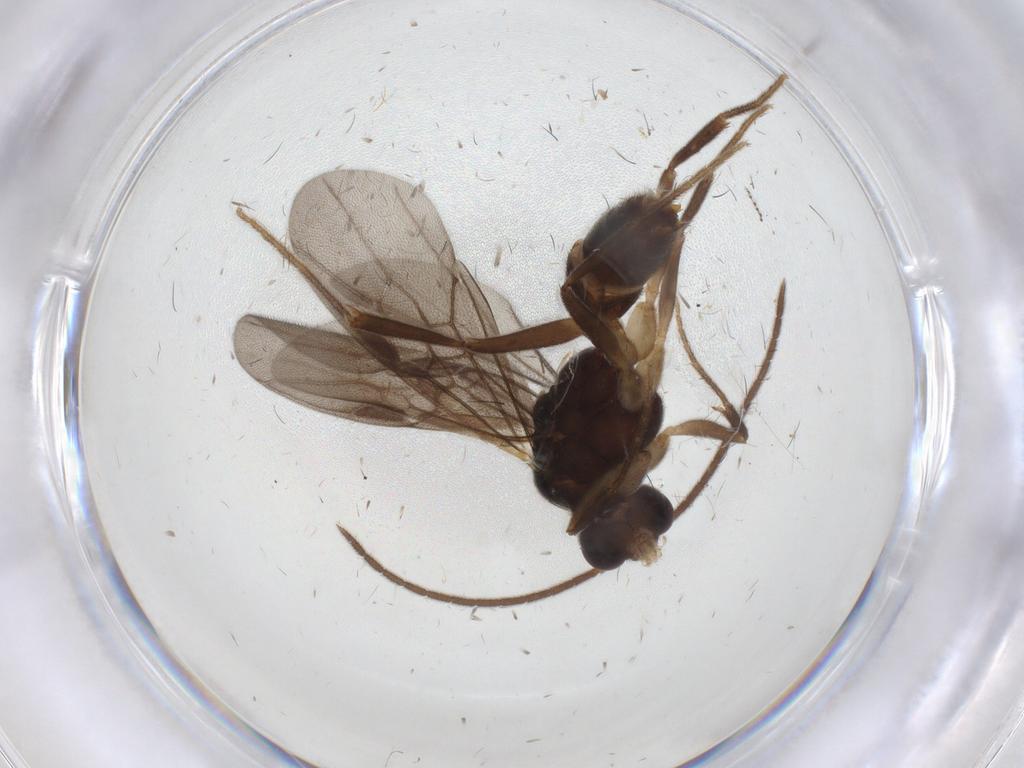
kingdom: Animalia
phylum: Arthropoda
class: Insecta
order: Hymenoptera
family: Formicidae
